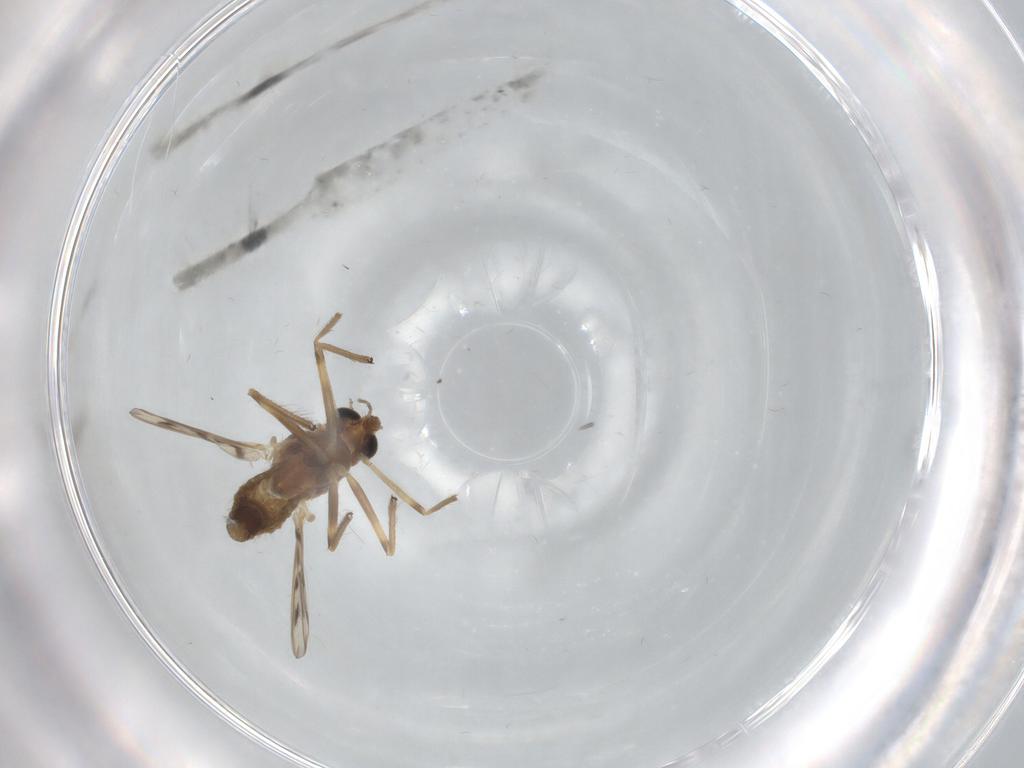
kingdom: Animalia
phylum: Arthropoda
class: Insecta
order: Diptera
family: Chironomidae
